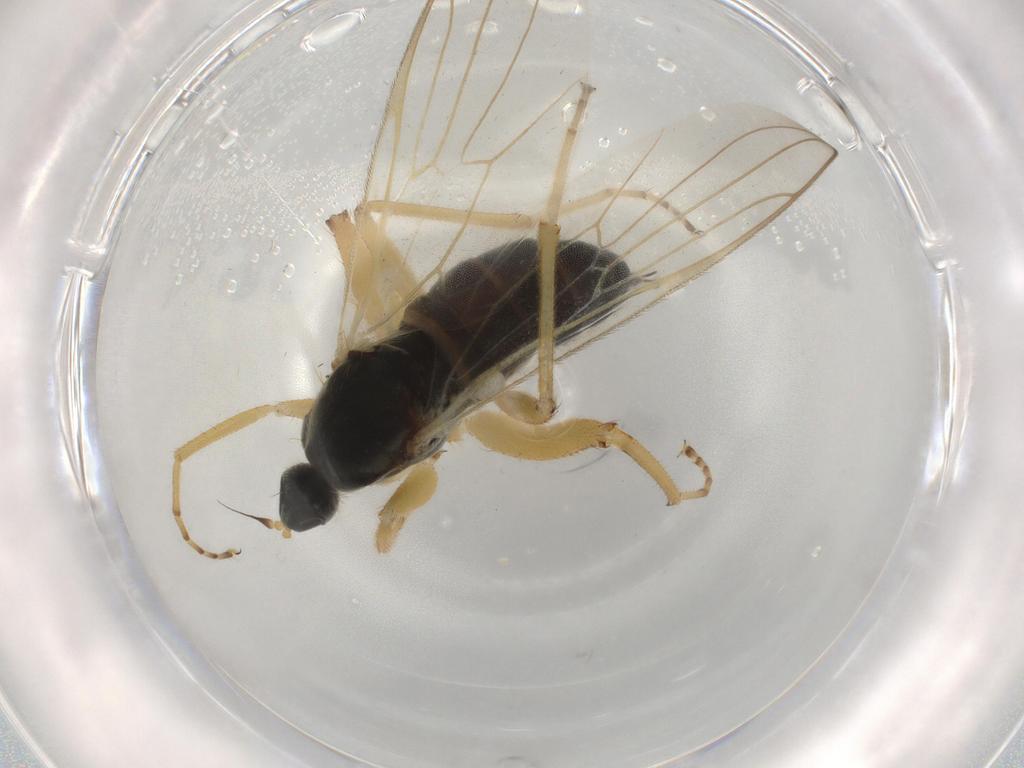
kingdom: Animalia
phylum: Arthropoda
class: Insecta
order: Diptera
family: Hybotidae
